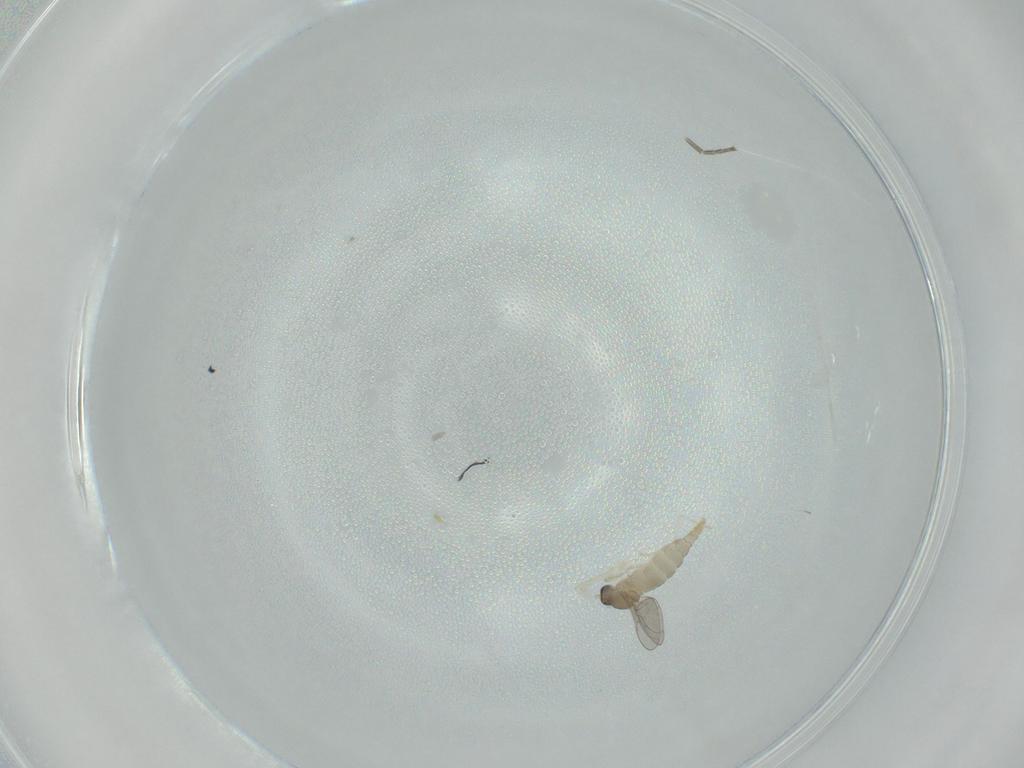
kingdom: Animalia
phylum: Arthropoda
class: Insecta
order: Diptera
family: Phoridae
